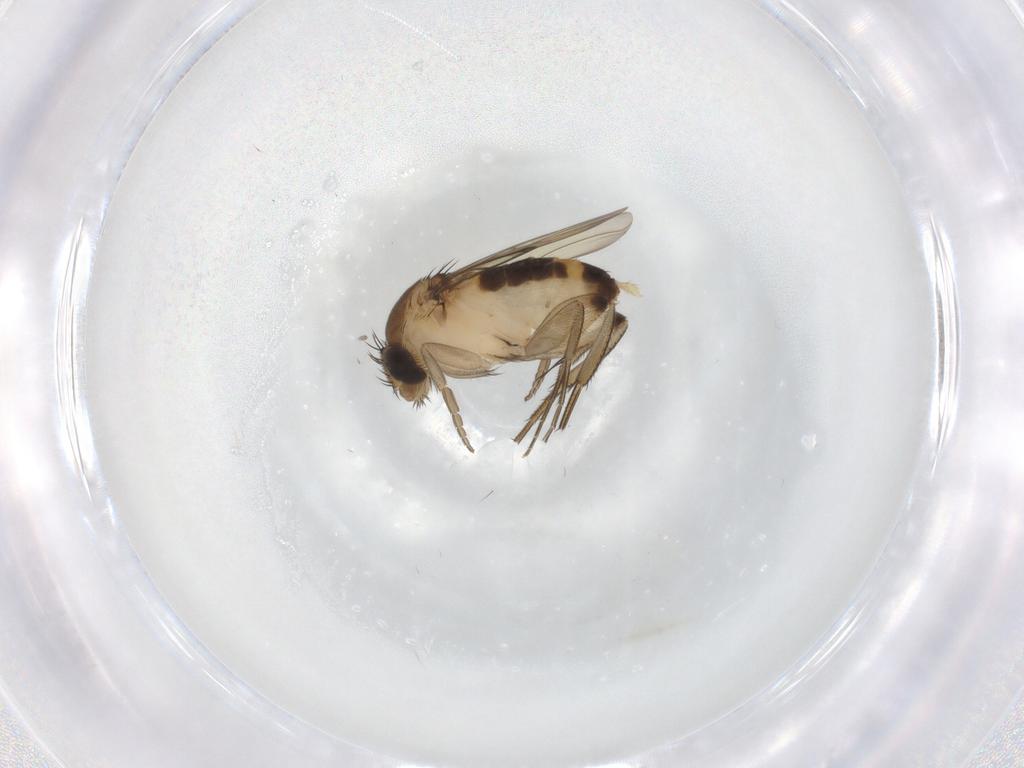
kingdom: Animalia
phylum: Arthropoda
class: Insecta
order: Diptera
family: Phoridae
